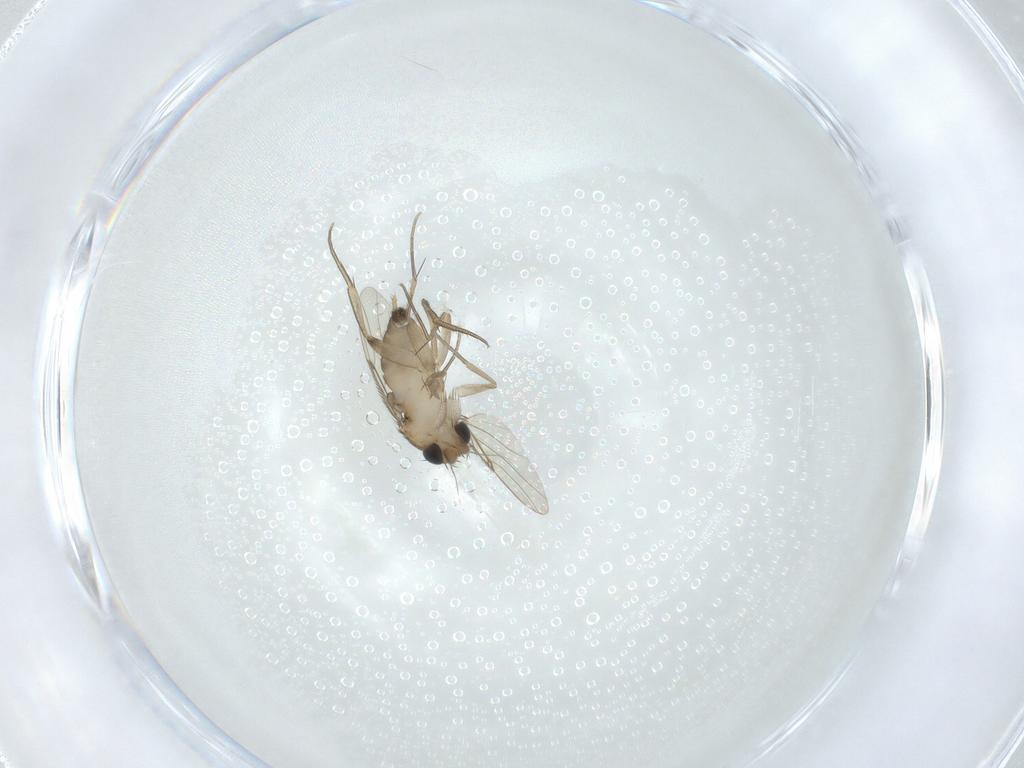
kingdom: Animalia
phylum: Arthropoda
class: Insecta
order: Diptera
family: Phoridae
